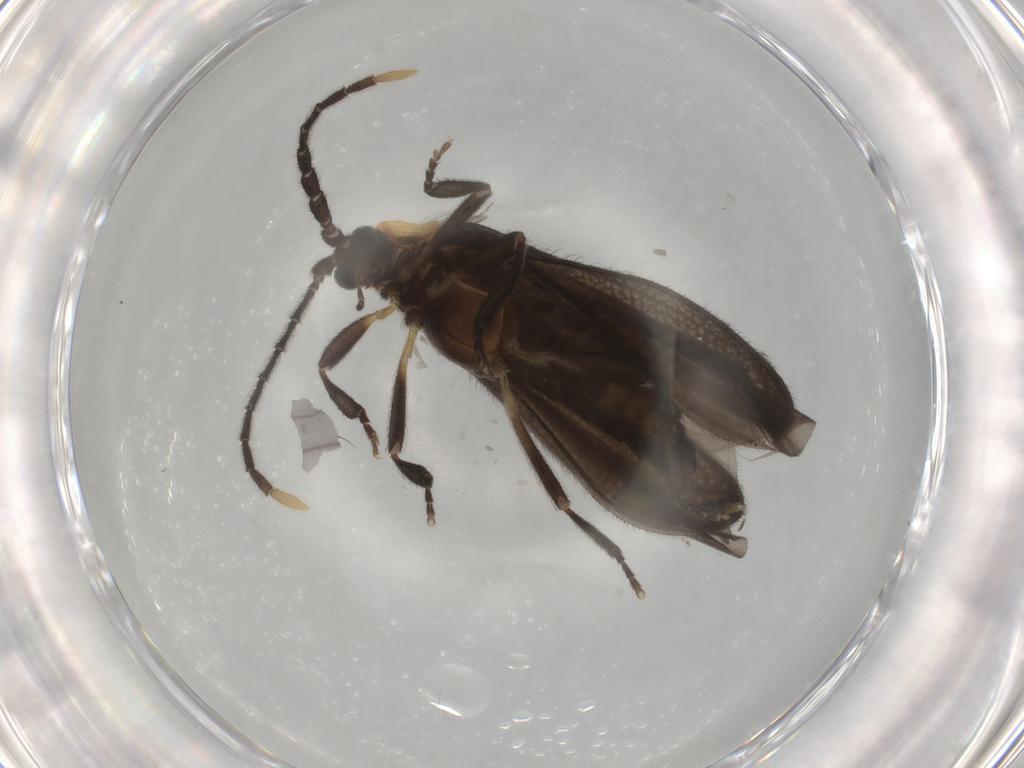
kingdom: Animalia
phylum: Arthropoda
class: Insecta
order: Coleoptera
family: Lycidae
